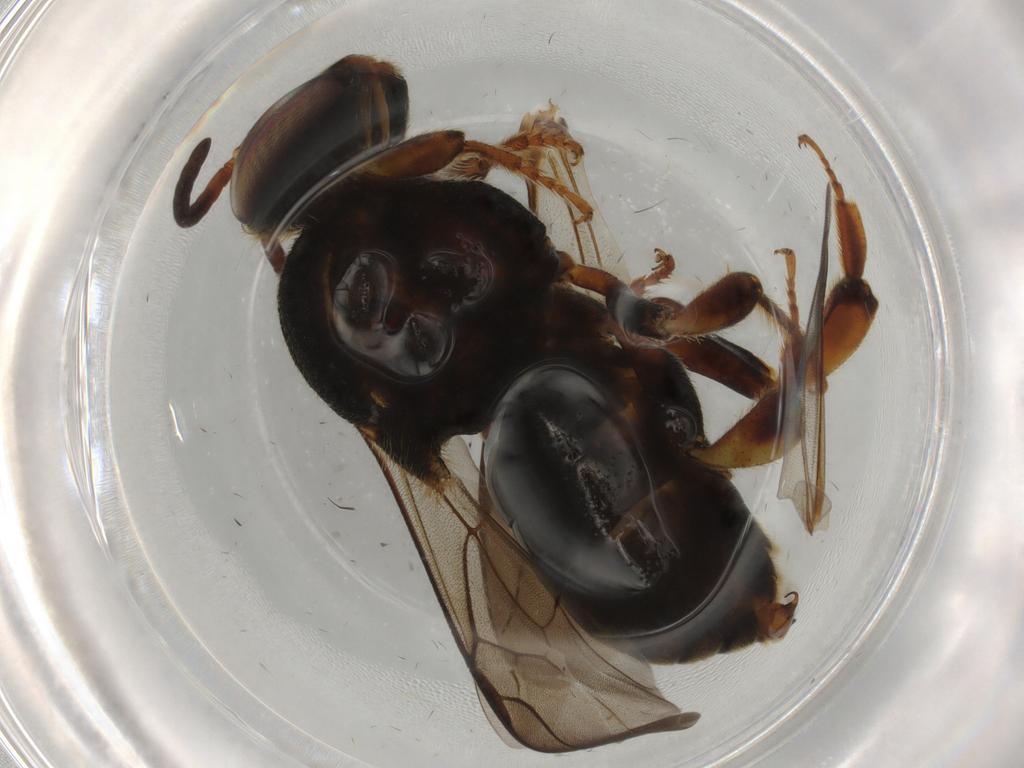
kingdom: Animalia
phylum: Arthropoda
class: Insecta
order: Hymenoptera
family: Apidae
